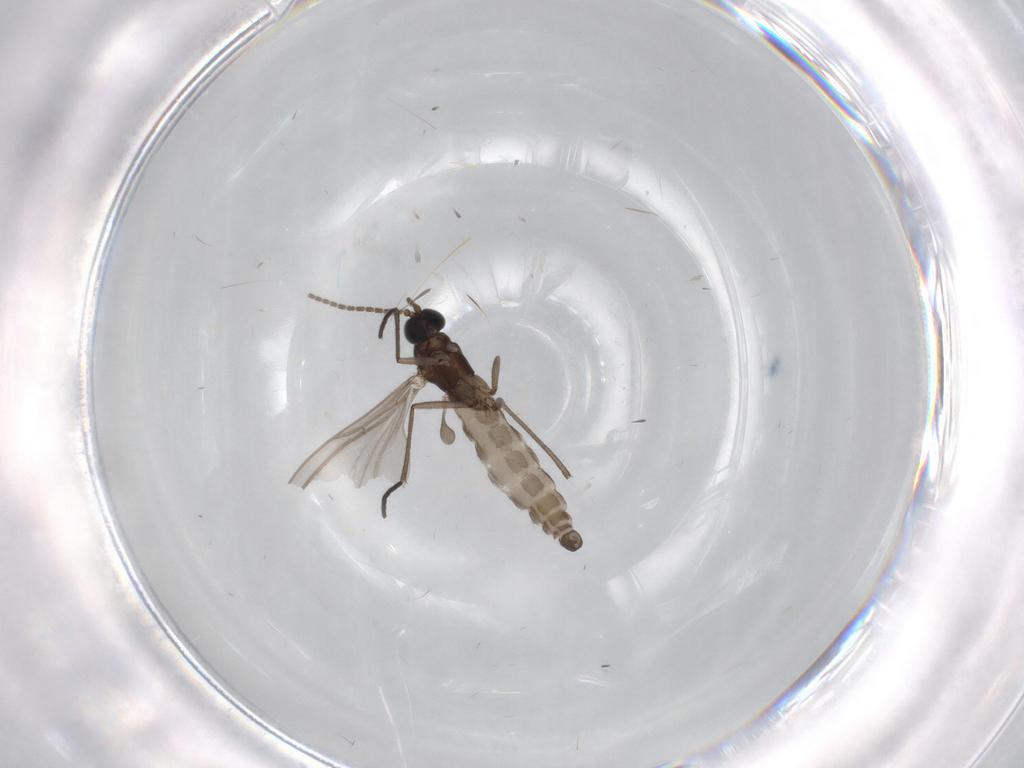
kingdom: Animalia
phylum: Arthropoda
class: Insecta
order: Diptera
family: Sciaridae
